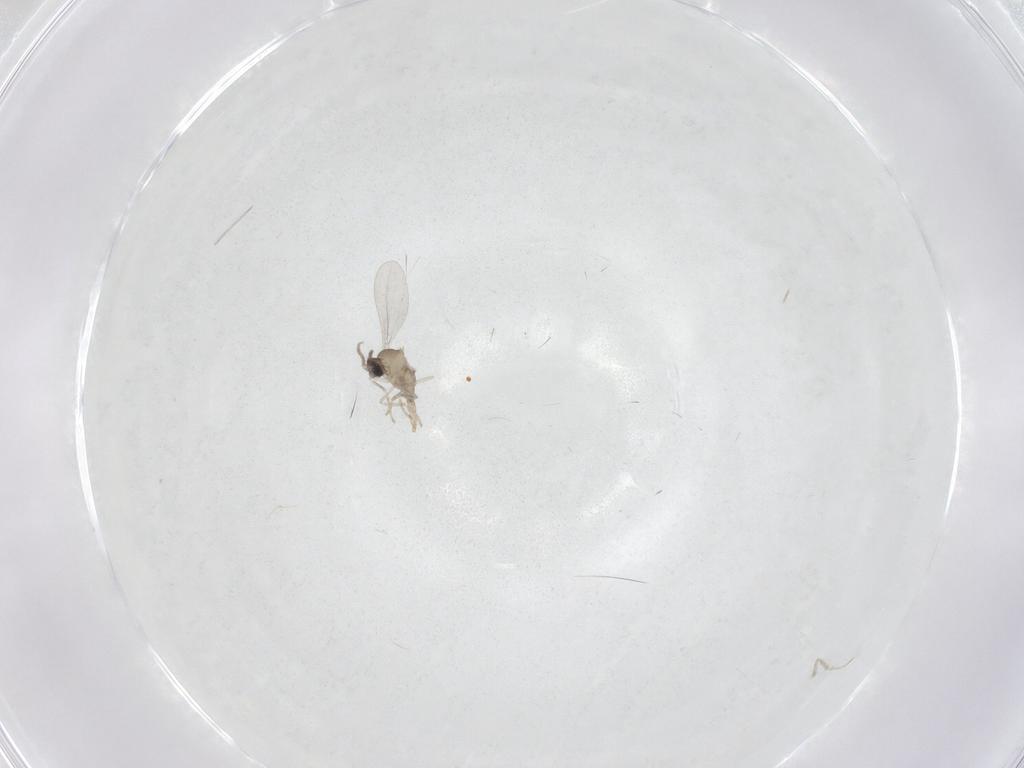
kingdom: Animalia
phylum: Arthropoda
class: Insecta
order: Diptera
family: Cecidomyiidae
